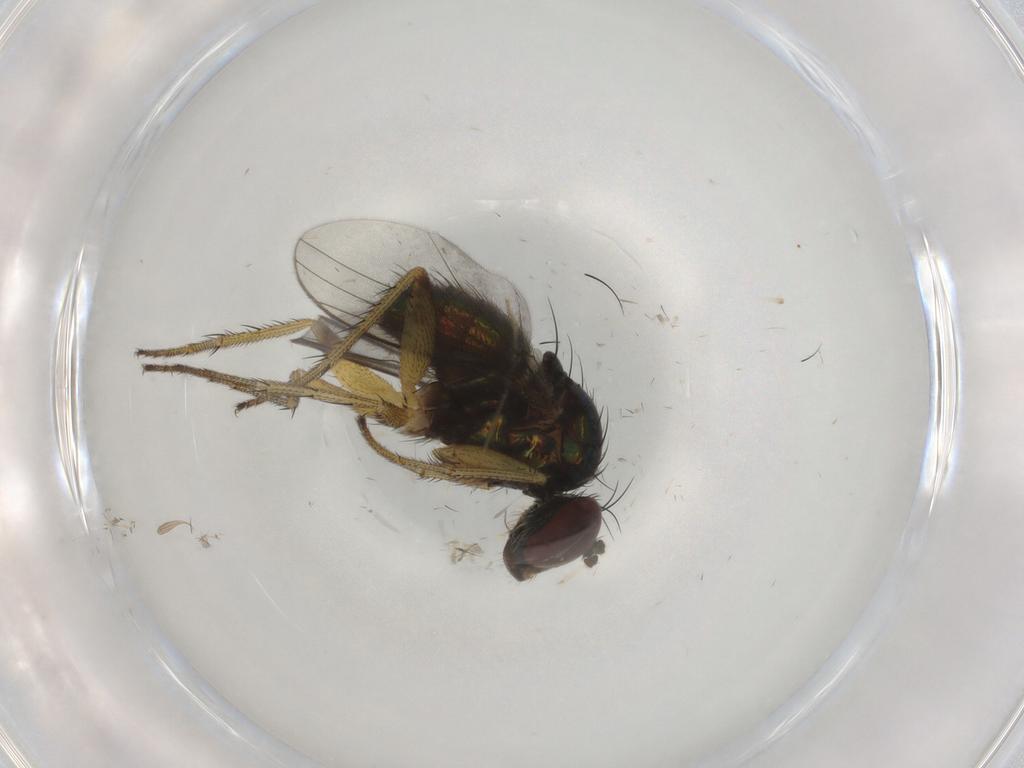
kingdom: Animalia
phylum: Arthropoda
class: Insecta
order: Diptera
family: Dolichopodidae
